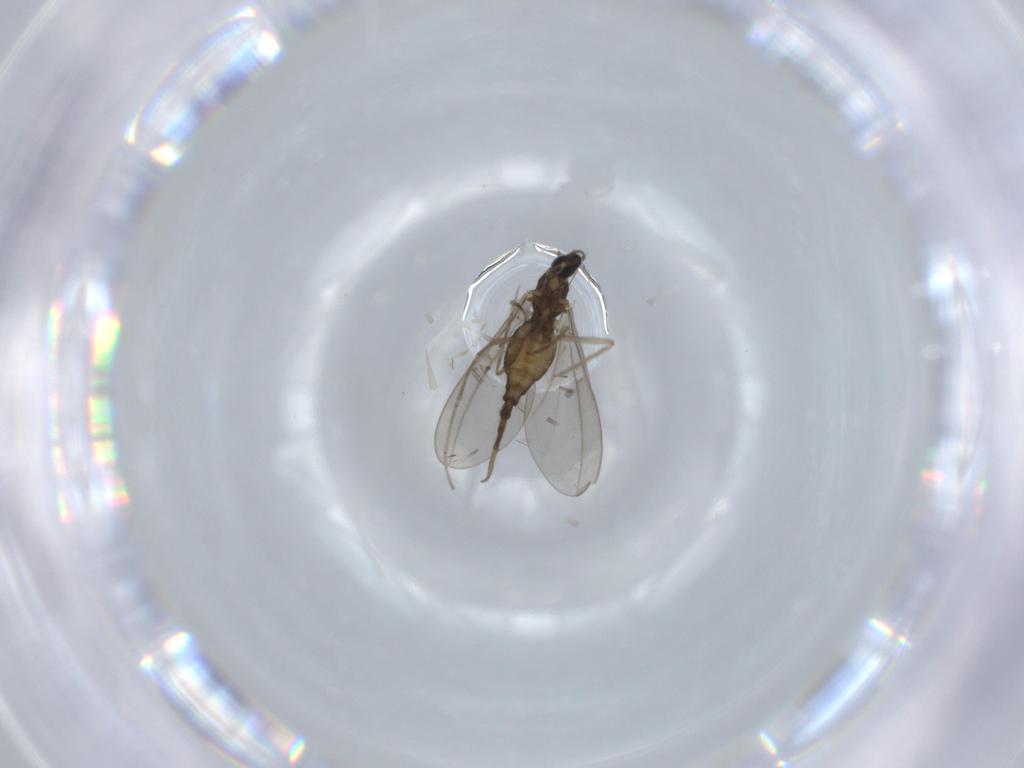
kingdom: Animalia
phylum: Arthropoda
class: Insecta
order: Diptera
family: Cecidomyiidae
